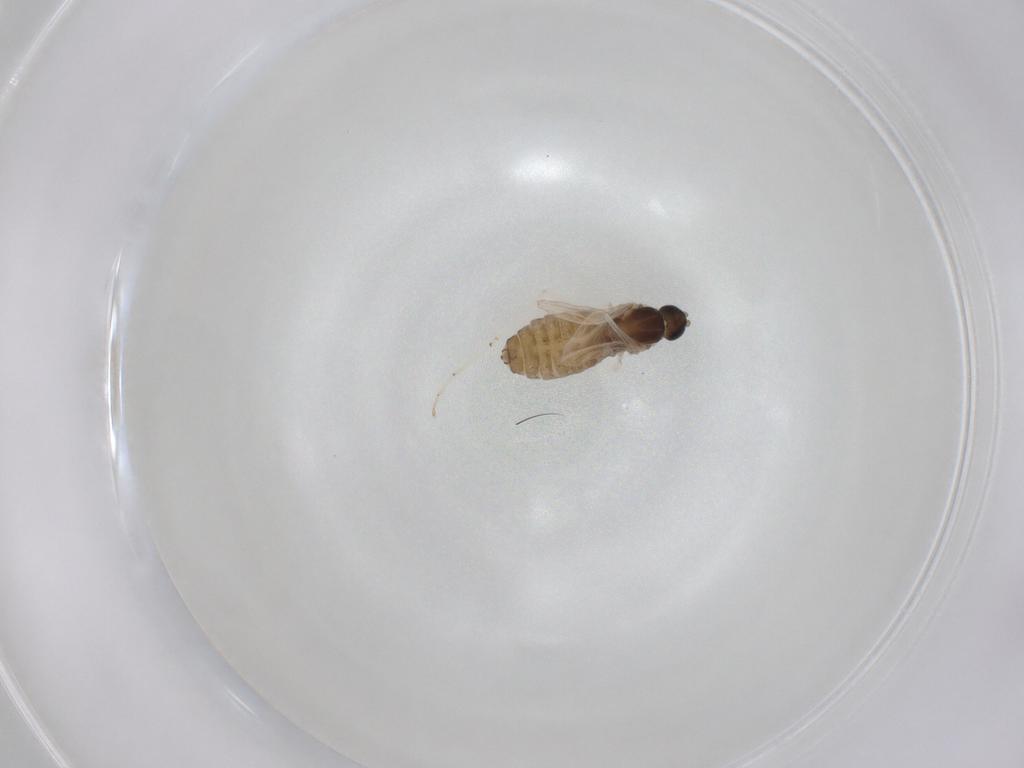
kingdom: Animalia
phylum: Arthropoda
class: Insecta
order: Diptera
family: Cecidomyiidae
